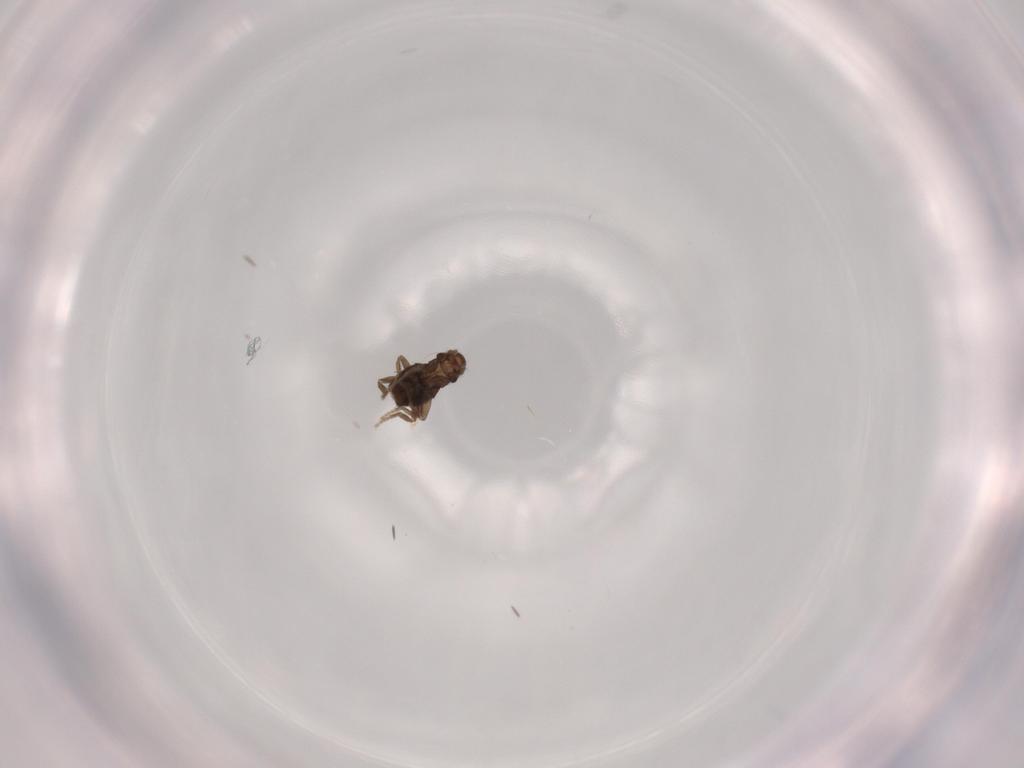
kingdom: Animalia
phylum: Arthropoda
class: Insecta
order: Diptera
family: Phoridae
